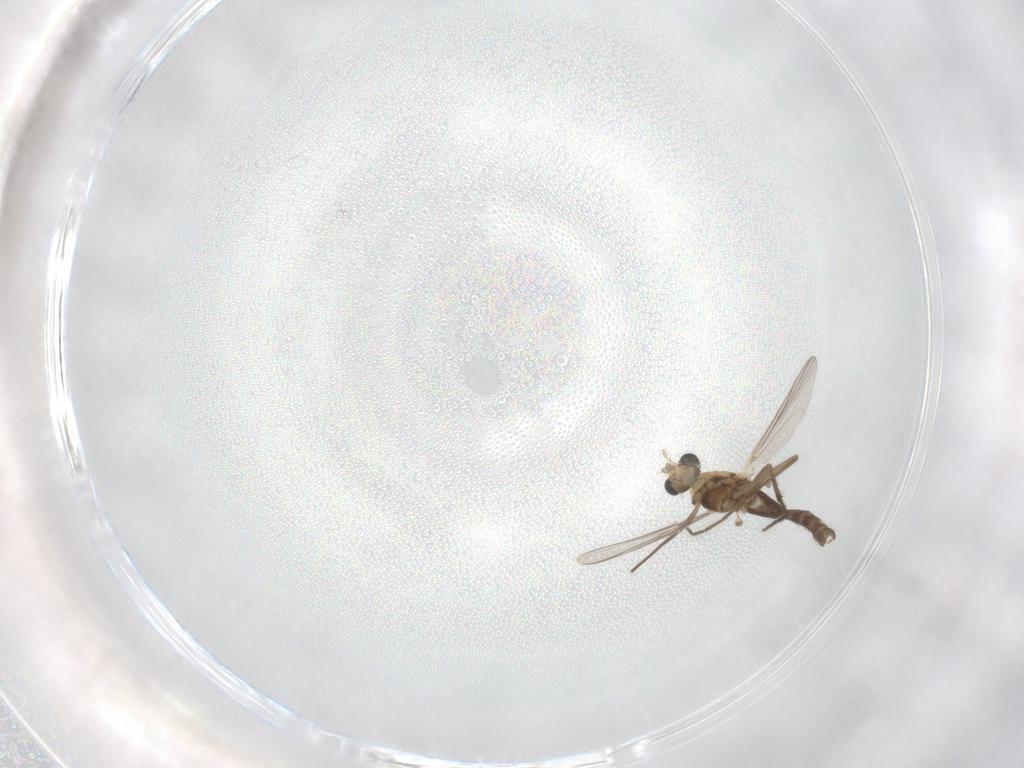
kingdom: Animalia
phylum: Arthropoda
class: Insecta
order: Diptera
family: Chironomidae
